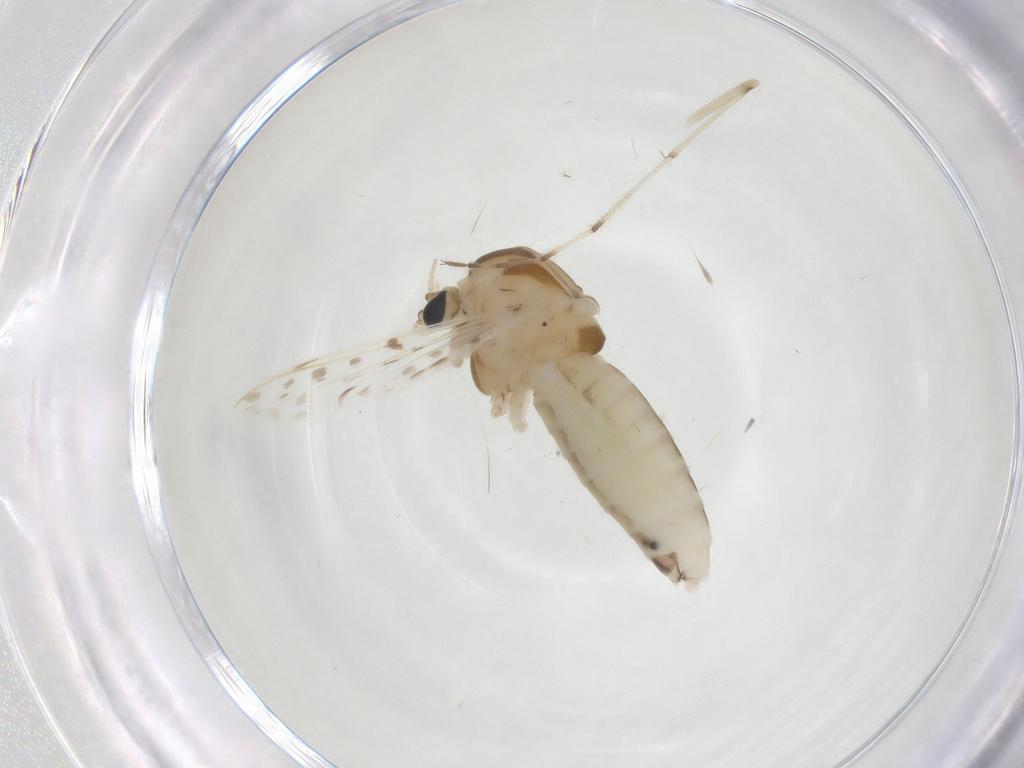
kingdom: Animalia
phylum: Arthropoda
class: Insecta
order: Diptera
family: Chironomidae
